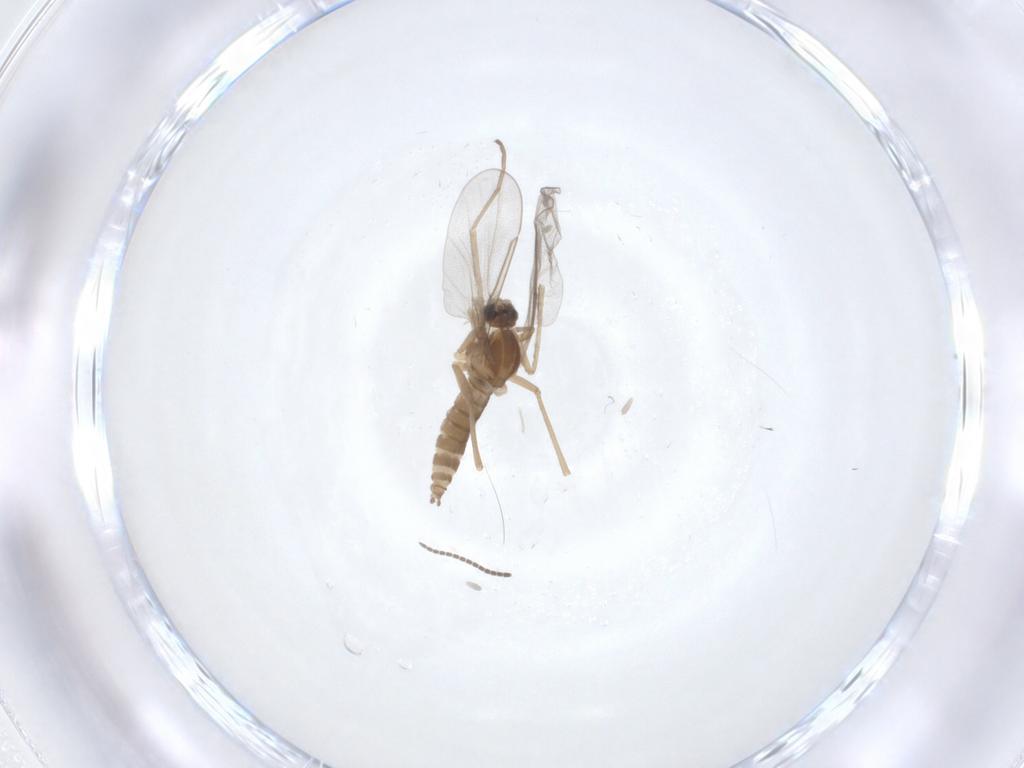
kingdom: Animalia
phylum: Arthropoda
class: Insecta
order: Diptera
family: Cecidomyiidae
